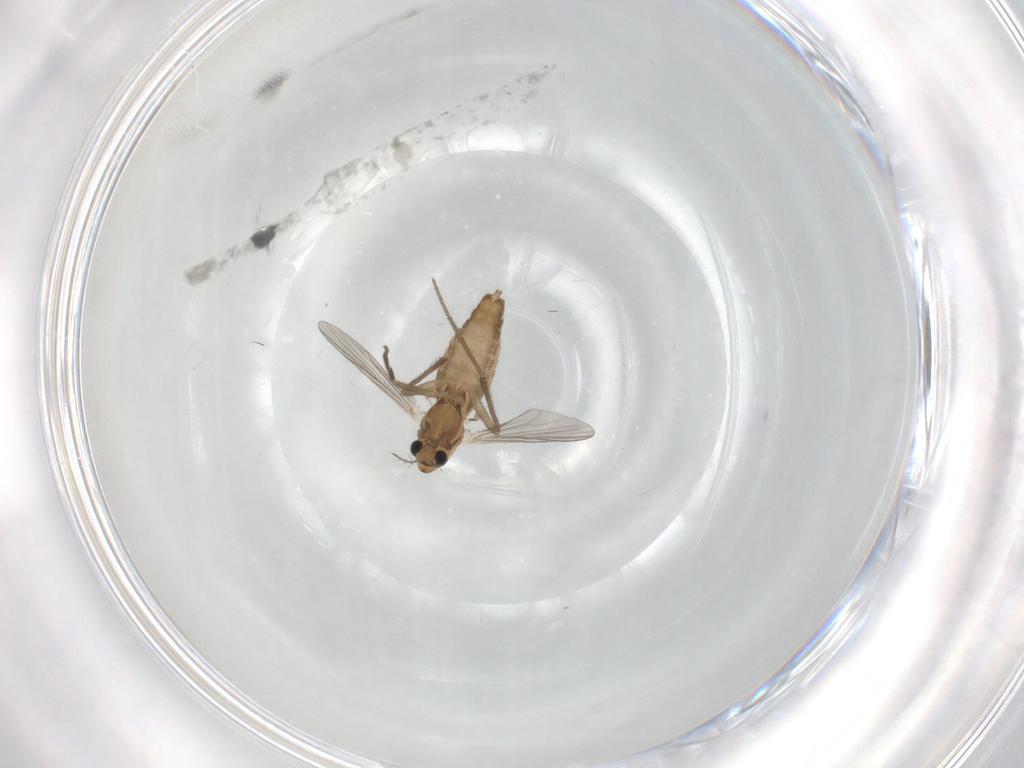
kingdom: Animalia
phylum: Arthropoda
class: Insecta
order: Diptera
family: Chironomidae
